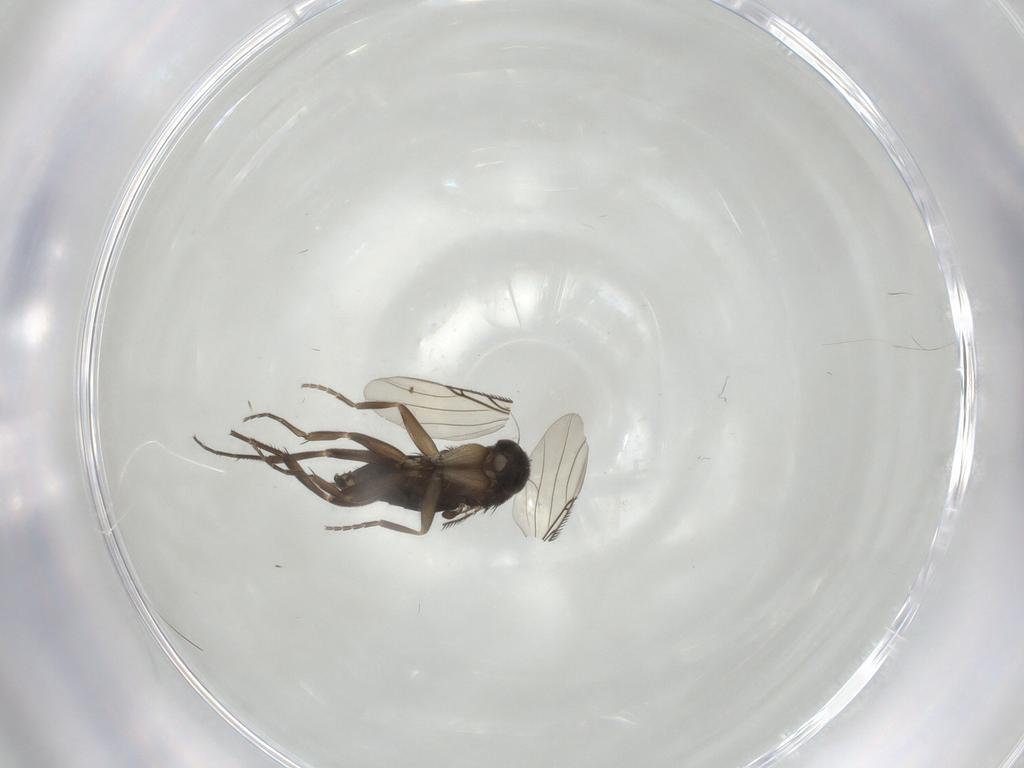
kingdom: Animalia
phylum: Arthropoda
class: Insecta
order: Diptera
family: Phoridae
